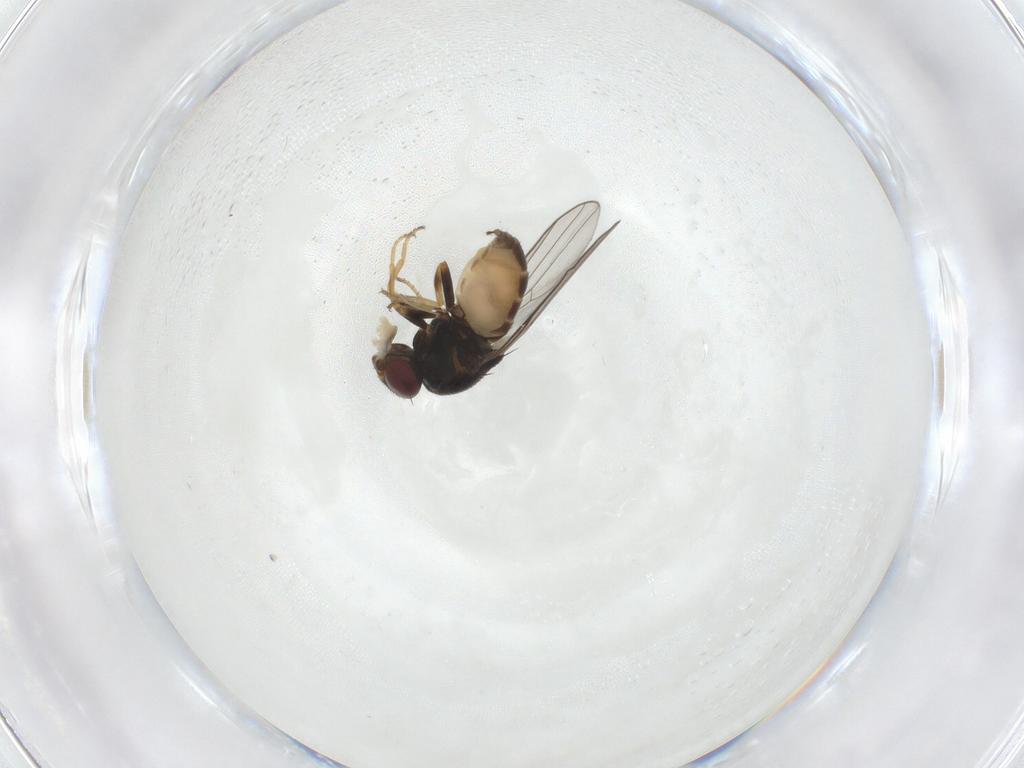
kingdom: Animalia
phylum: Arthropoda
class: Insecta
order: Diptera
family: Chloropidae
